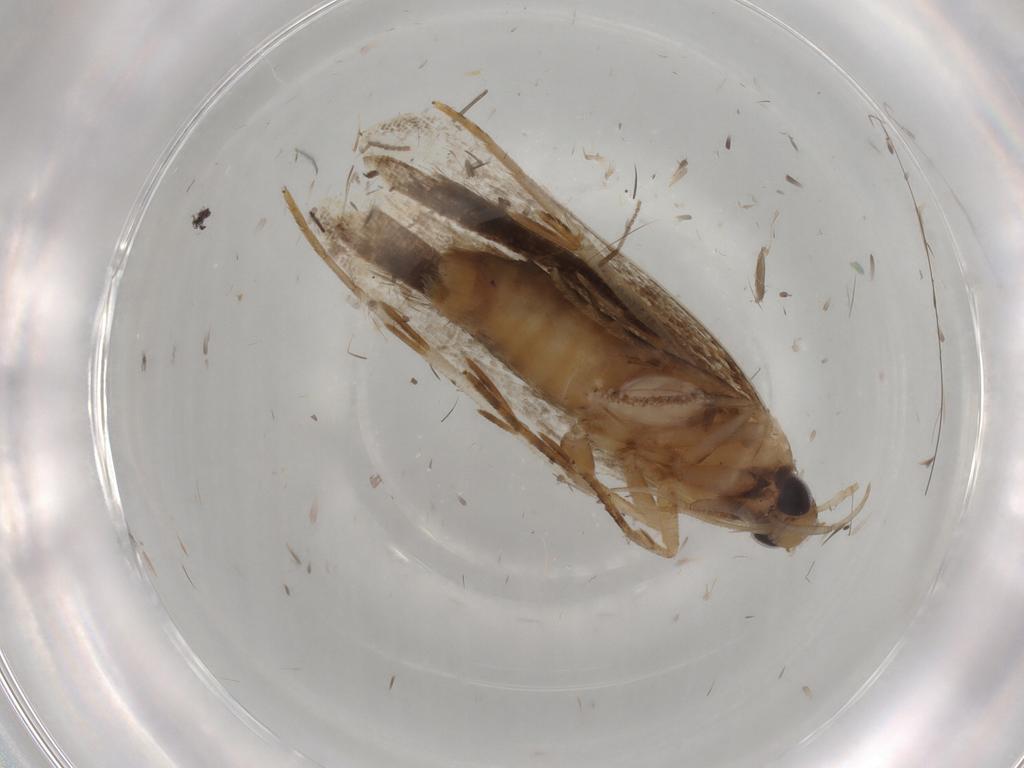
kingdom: Animalia
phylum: Arthropoda
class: Insecta
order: Lepidoptera
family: Gelechiidae
